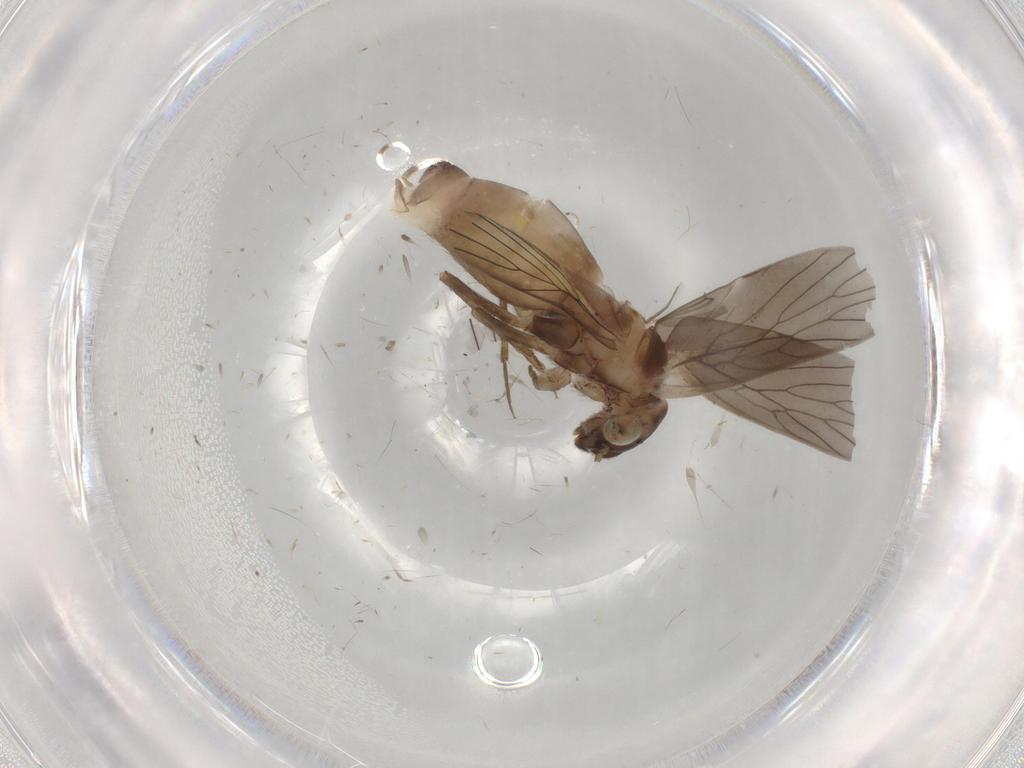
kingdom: Animalia
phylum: Arthropoda
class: Insecta
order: Psocodea
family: Lepidopsocidae
